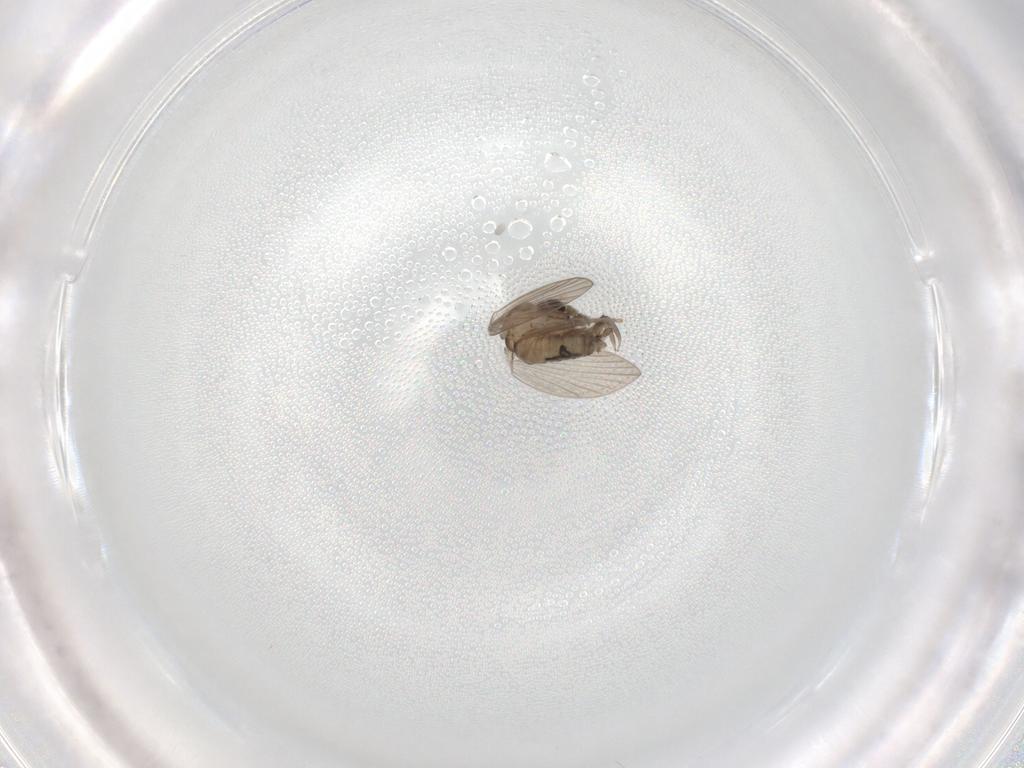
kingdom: Animalia
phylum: Arthropoda
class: Insecta
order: Diptera
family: Psychodidae
